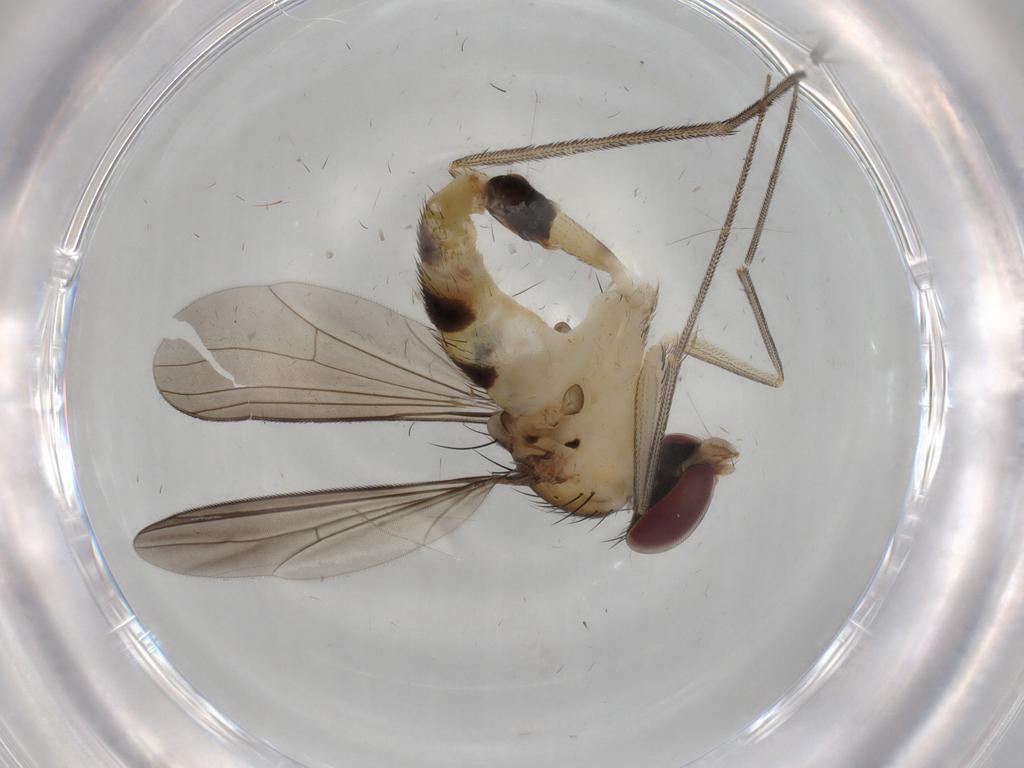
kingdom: Animalia
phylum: Arthropoda
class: Insecta
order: Diptera
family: Dolichopodidae
